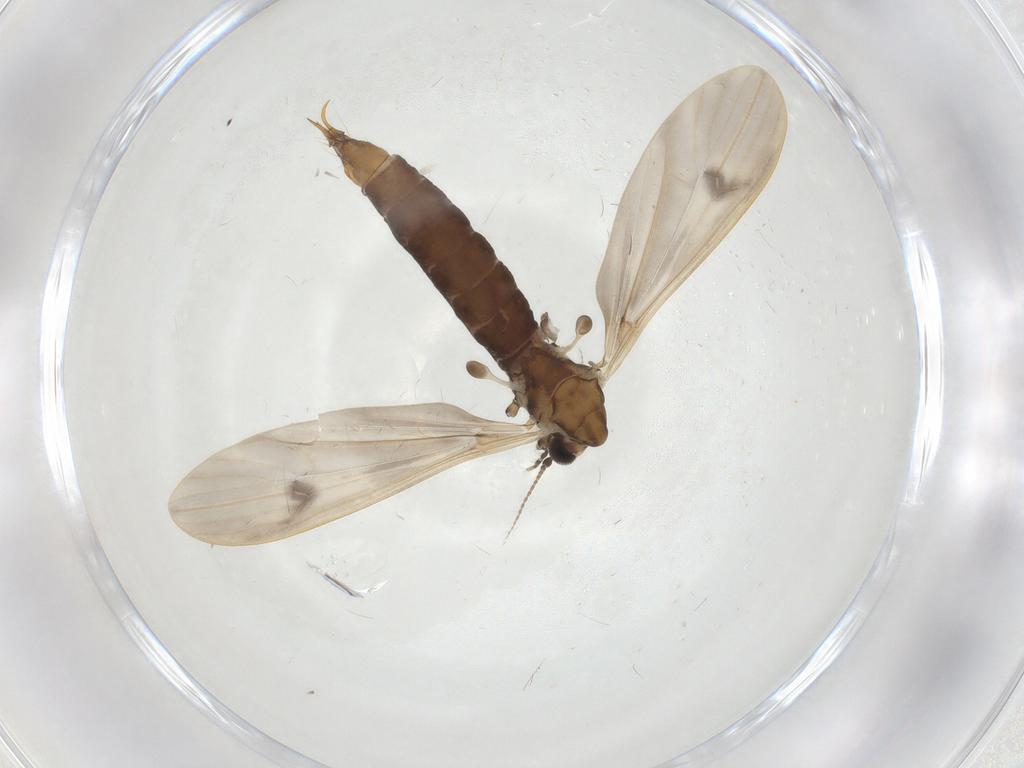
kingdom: Animalia
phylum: Arthropoda
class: Insecta
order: Diptera
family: Limoniidae
